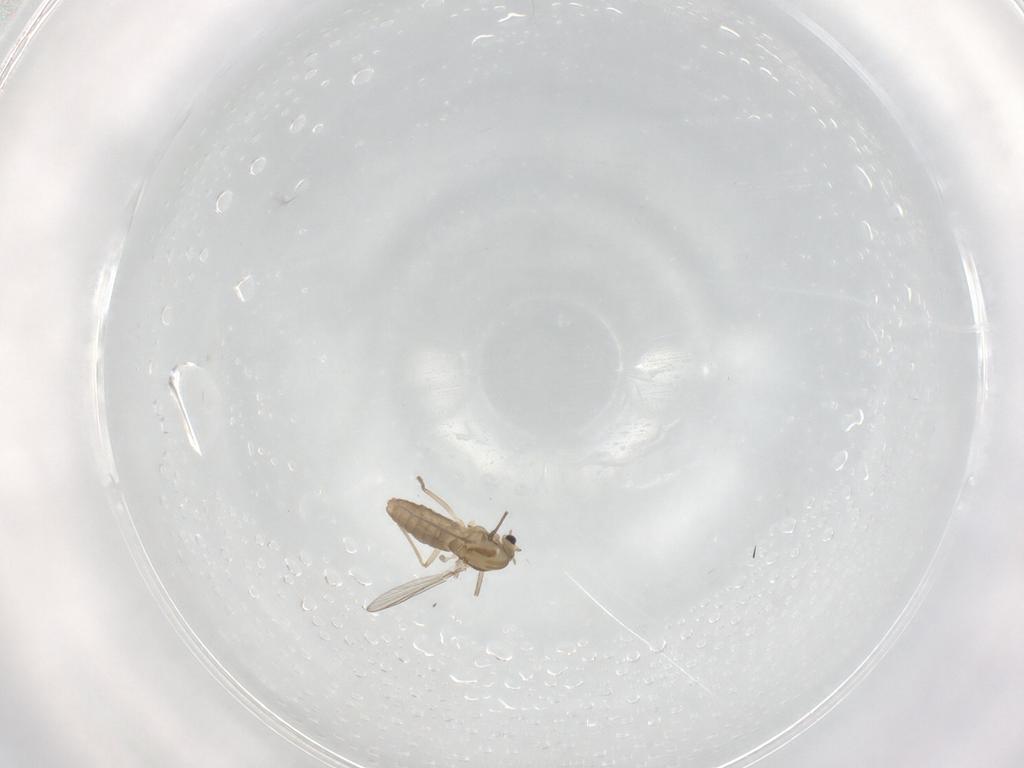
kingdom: Animalia
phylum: Arthropoda
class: Insecta
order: Diptera
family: Chironomidae
